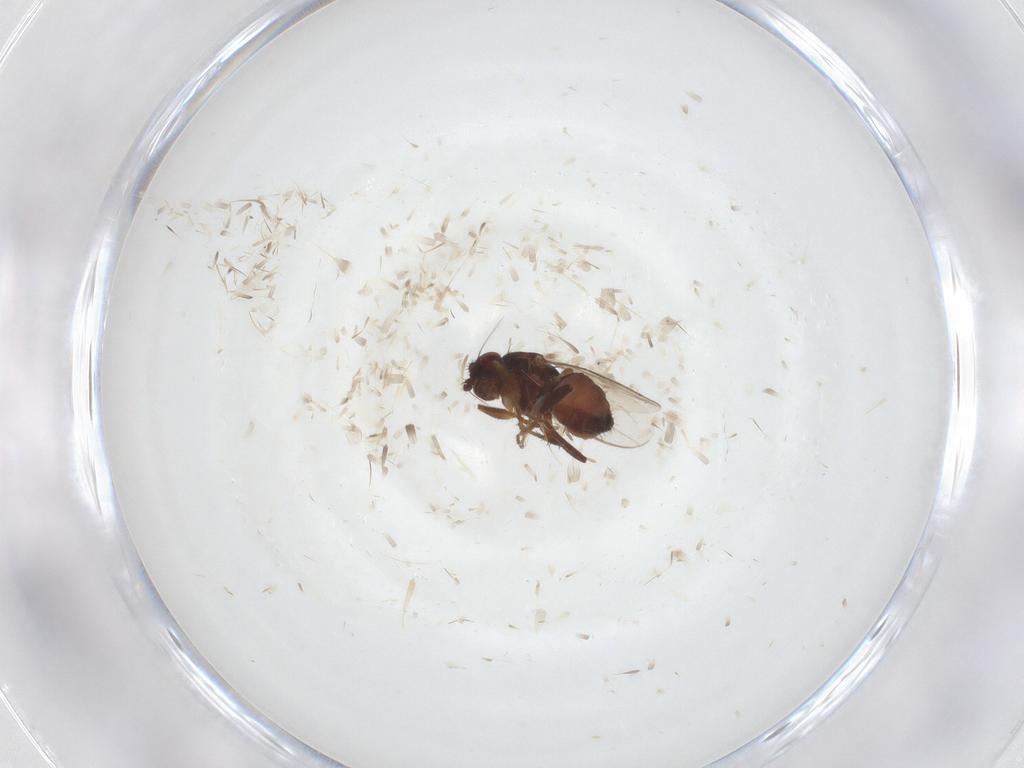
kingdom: Animalia
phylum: Arthropoda
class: Insecta
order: Diptera
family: Sphaeroceridae
